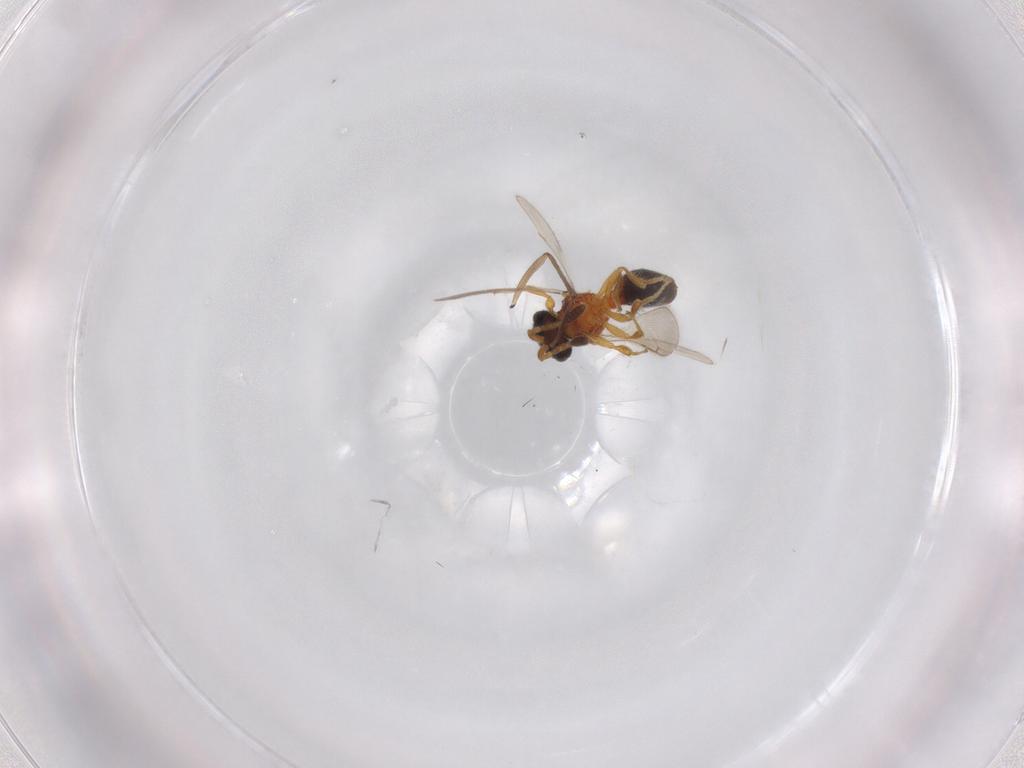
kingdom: Animalia
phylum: Arthropoda
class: Insecta
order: Hymenoptera
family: Scelionidae
